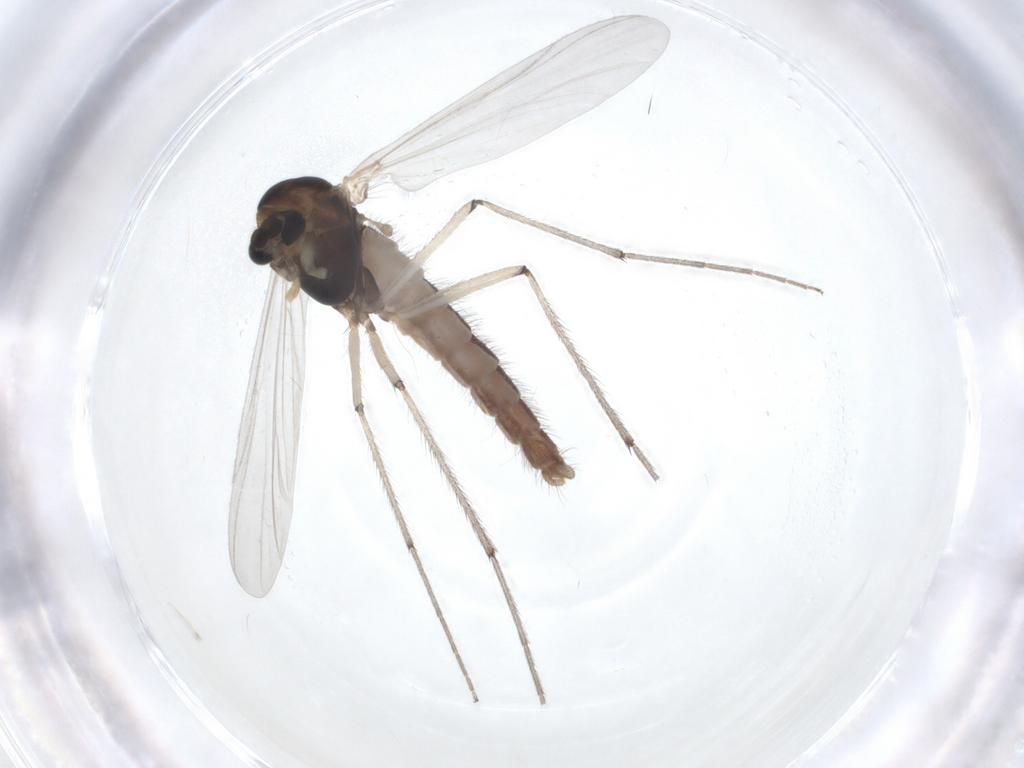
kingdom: Animalia
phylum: Arthropoda
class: Insecta
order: Diptera
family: Chironomidae
